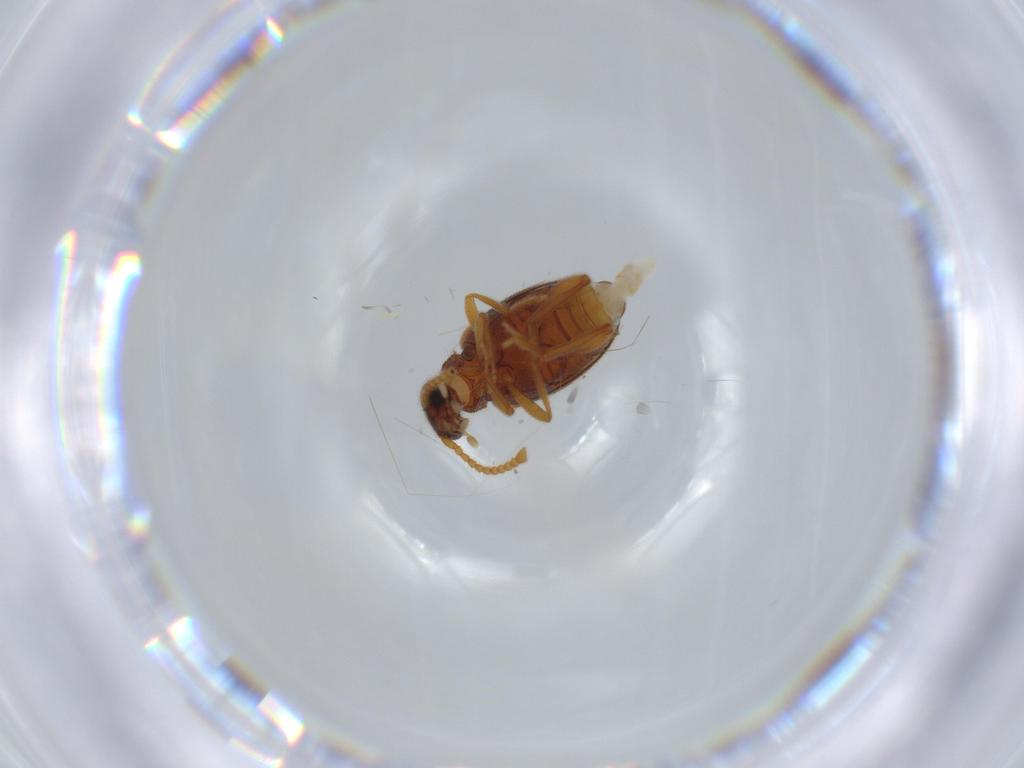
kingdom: Animalia
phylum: Arthropoda
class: Insecta
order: Coleoptera
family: Aderidae
